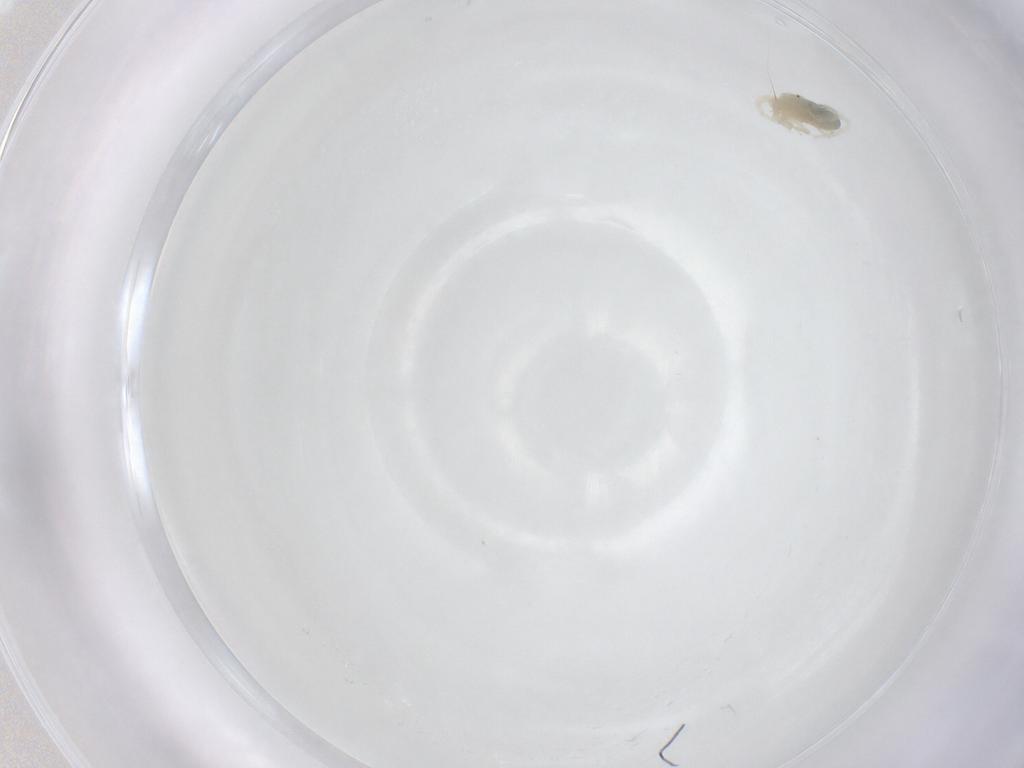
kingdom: Animalia
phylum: Arthropoda
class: Arachnida
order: Trombidiformes
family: Anystidae
